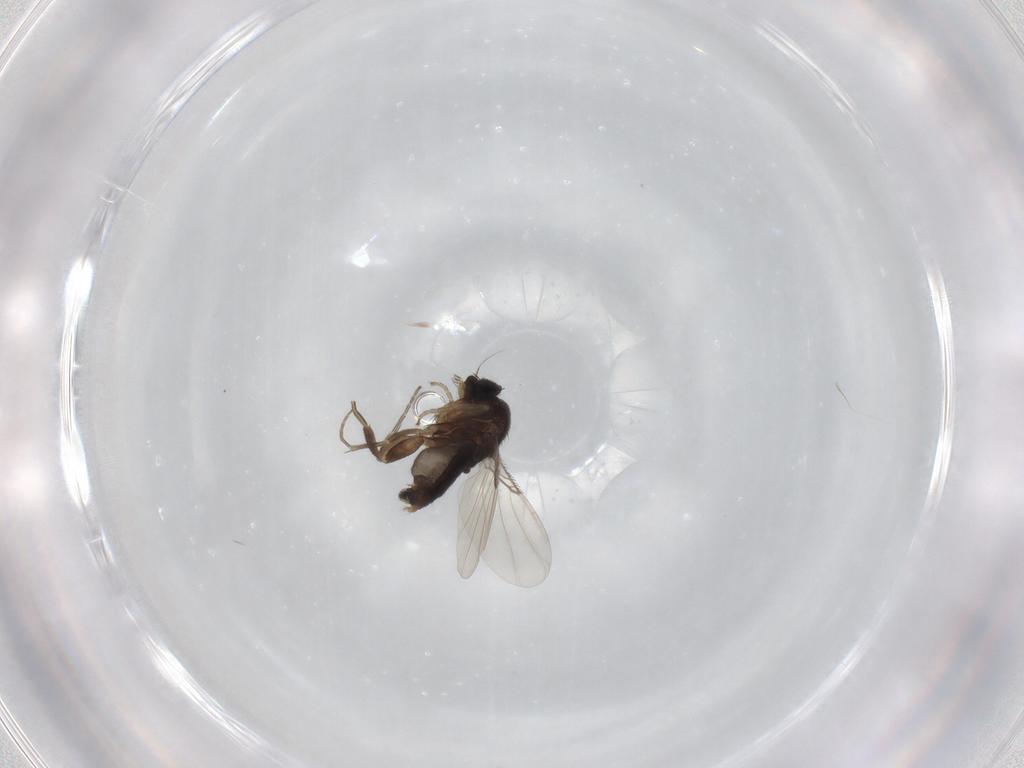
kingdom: Animalia
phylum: Arthropoda
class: Insecta
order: Diptera
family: Phoridae
